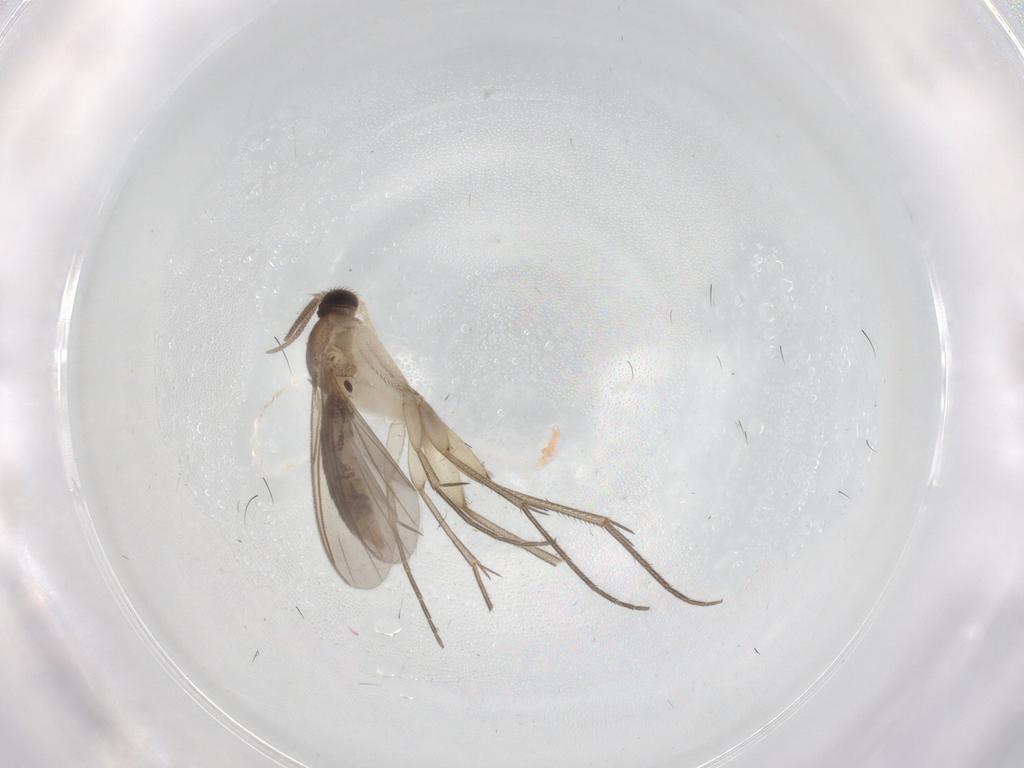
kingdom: Animalia
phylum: Arthropoda
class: Insecta
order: Diptera
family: Mycetophilidae
